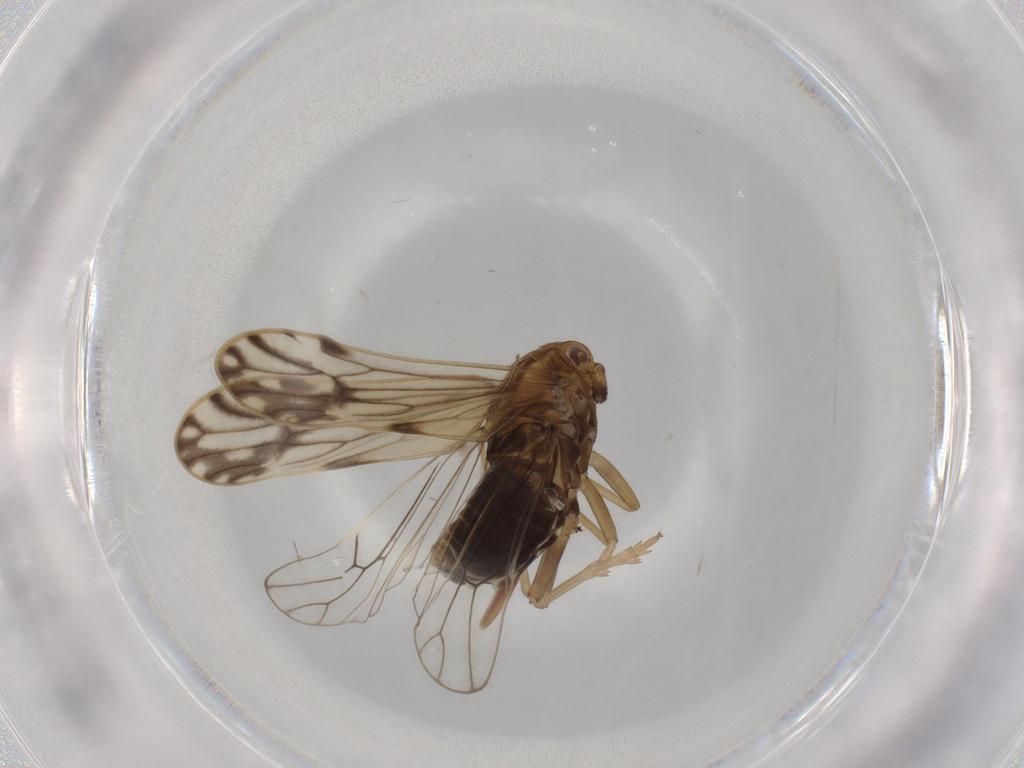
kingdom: Animalia
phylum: Arthropoda
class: Insecta
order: Hemiptera
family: Delphacidae
